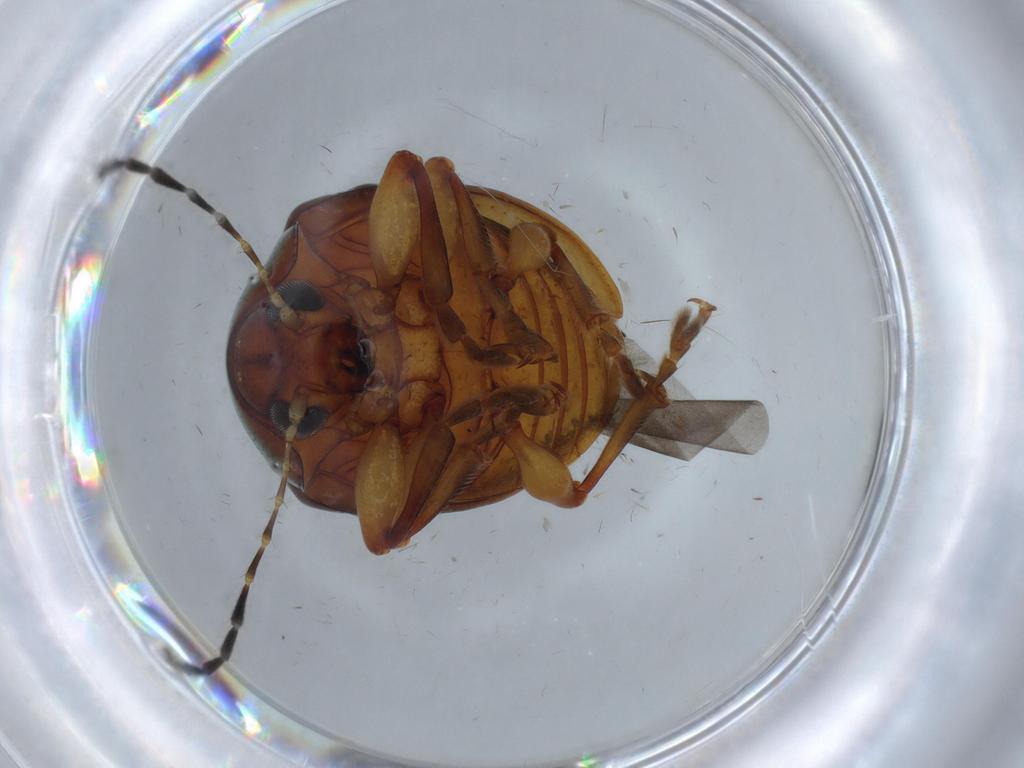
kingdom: Animalia
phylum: Arthropoda
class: Insecta
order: Coleoptera
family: Chrysomelidae
